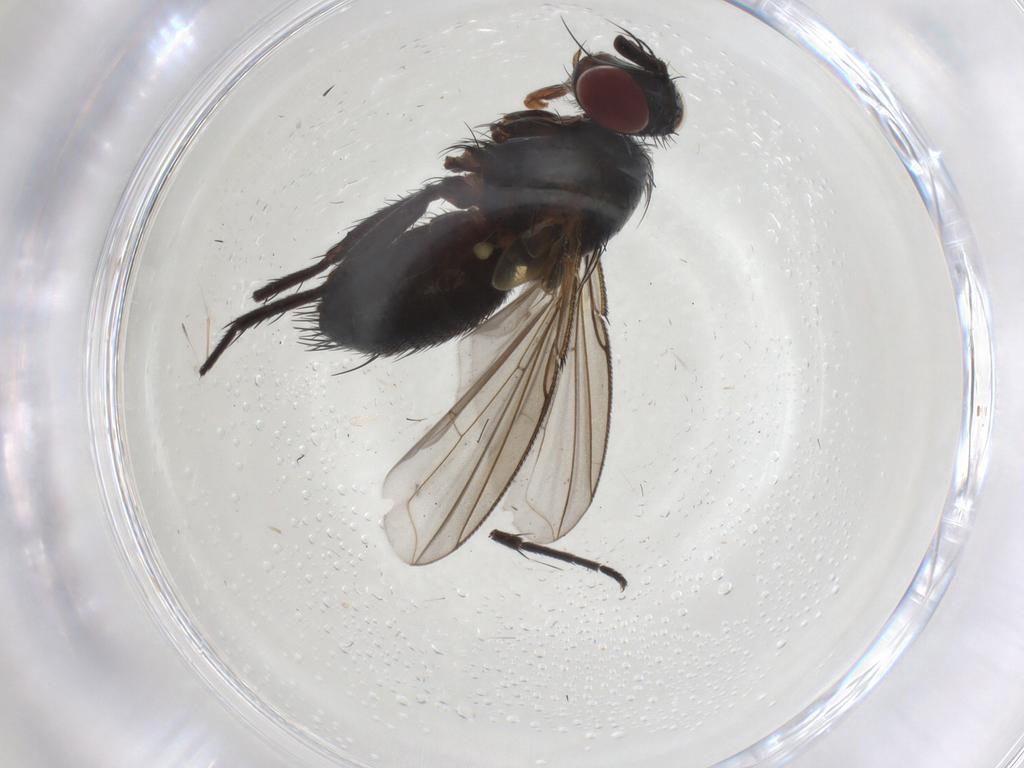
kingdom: Animalia
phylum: Arthropoda
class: Insecta
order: Diptera
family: Tachinidae
